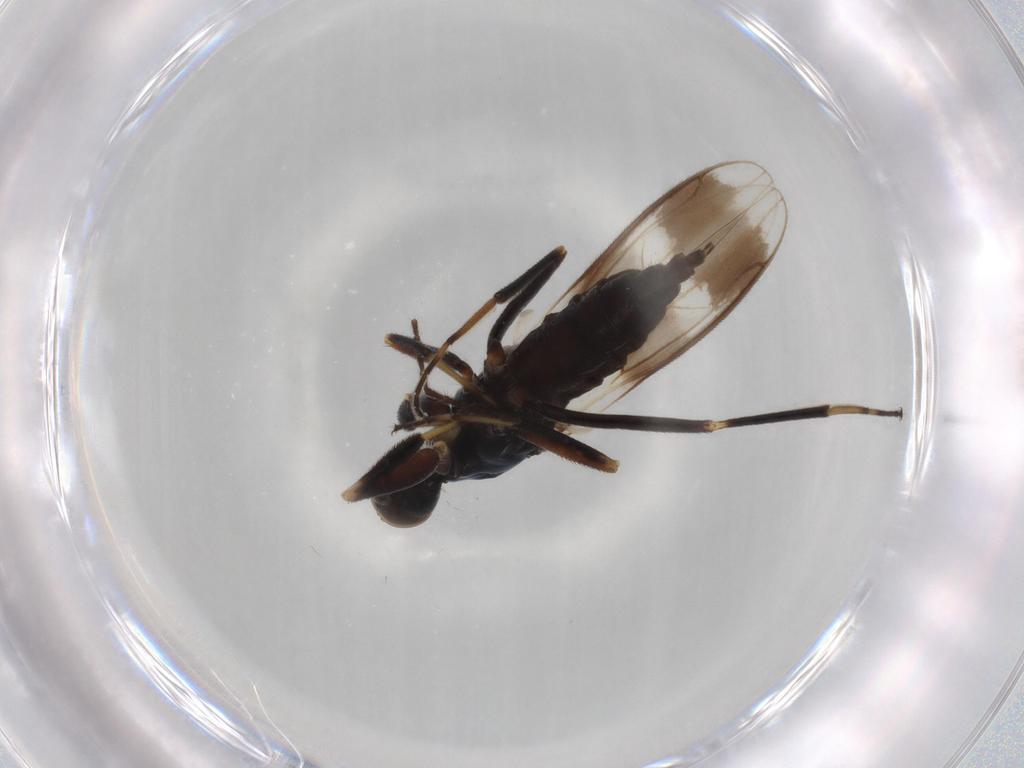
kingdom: Animalia
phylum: Arthropoda
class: Insecta
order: Diptera
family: Hybotidae
